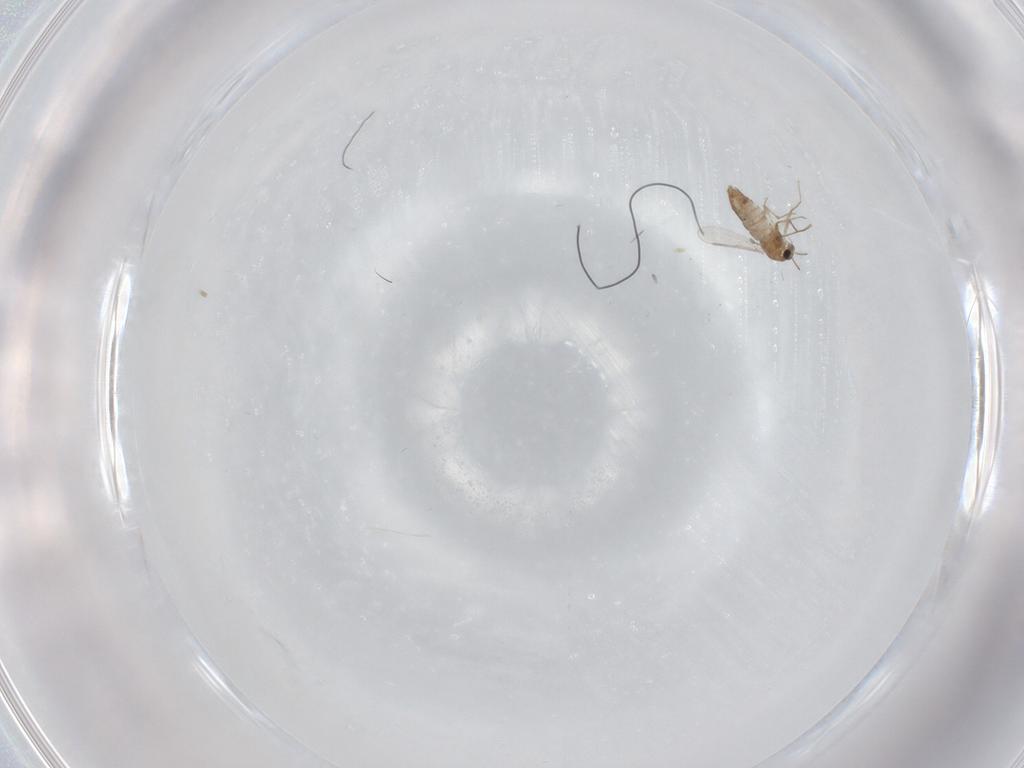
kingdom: Animalia
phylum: Arthropoda
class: Insecta
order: Diptera
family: Chironomidae
